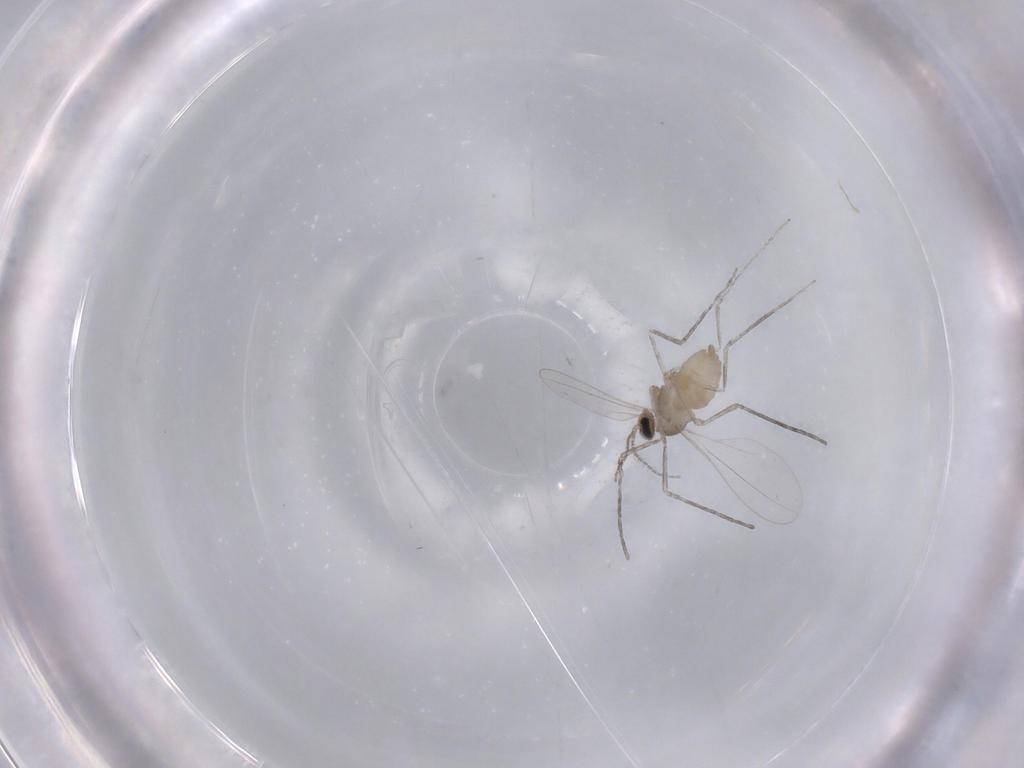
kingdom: Animalia
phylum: Arthropoda
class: Insecta
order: Diptera
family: Cecidomyiidae
